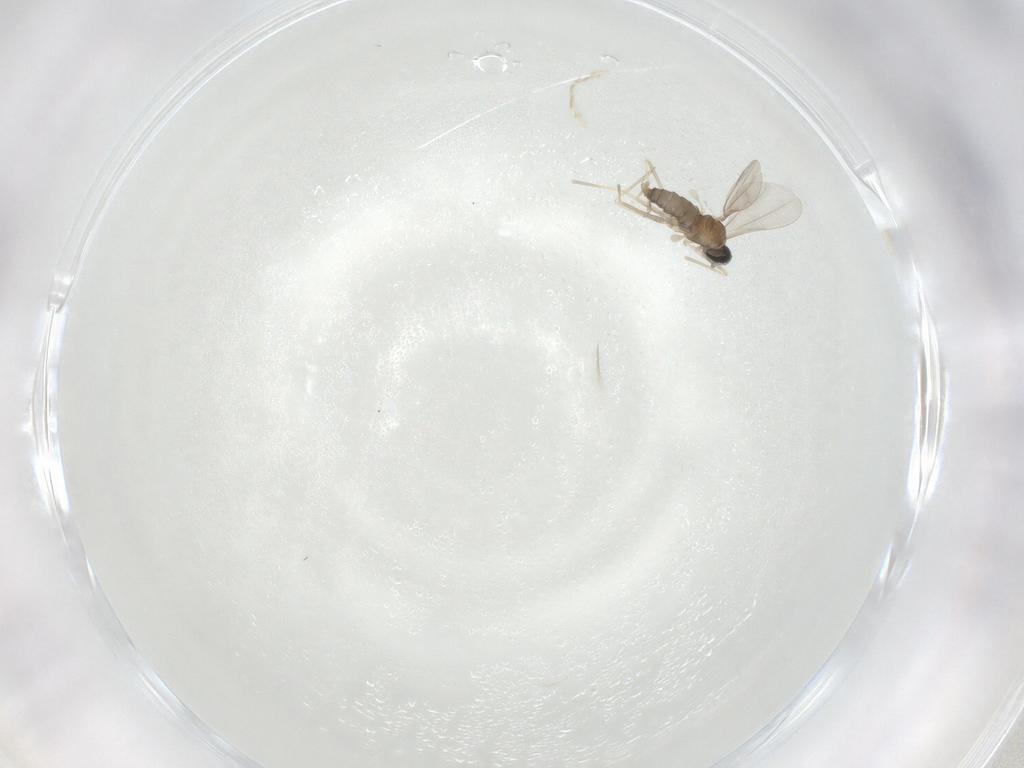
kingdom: Animalia
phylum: Arthropoda
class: Insecta
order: Diptera
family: Cecidomyiidae
